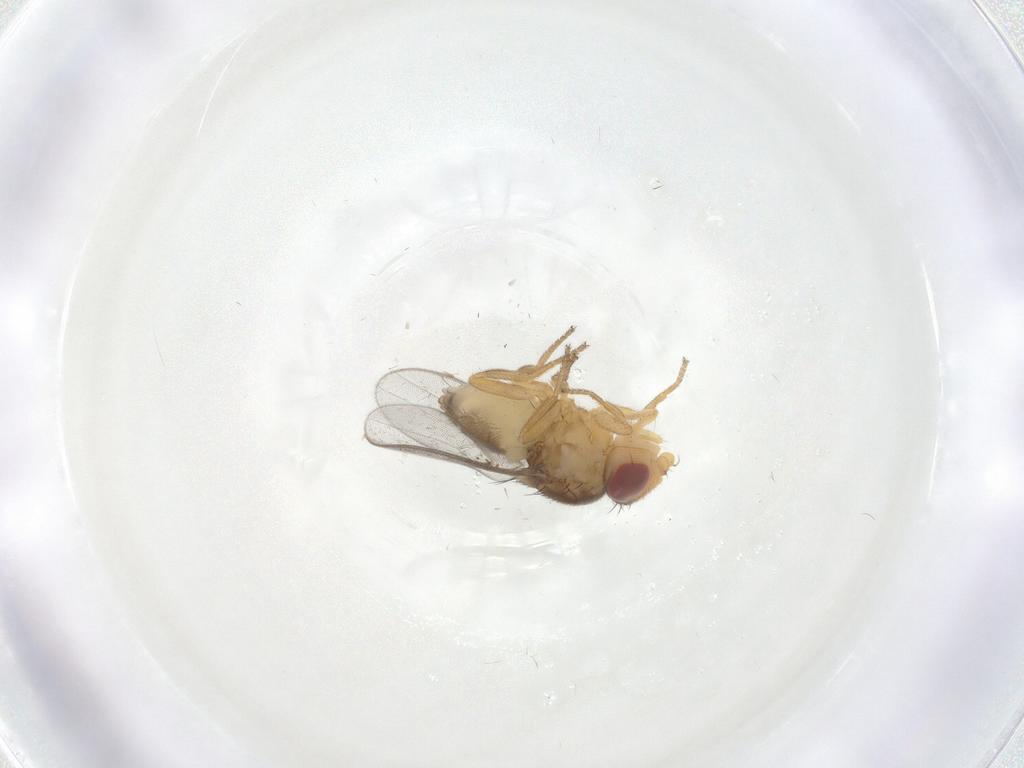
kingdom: Animalia
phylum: Arthropoda
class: Insecta
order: Diptera
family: Chloropidae
